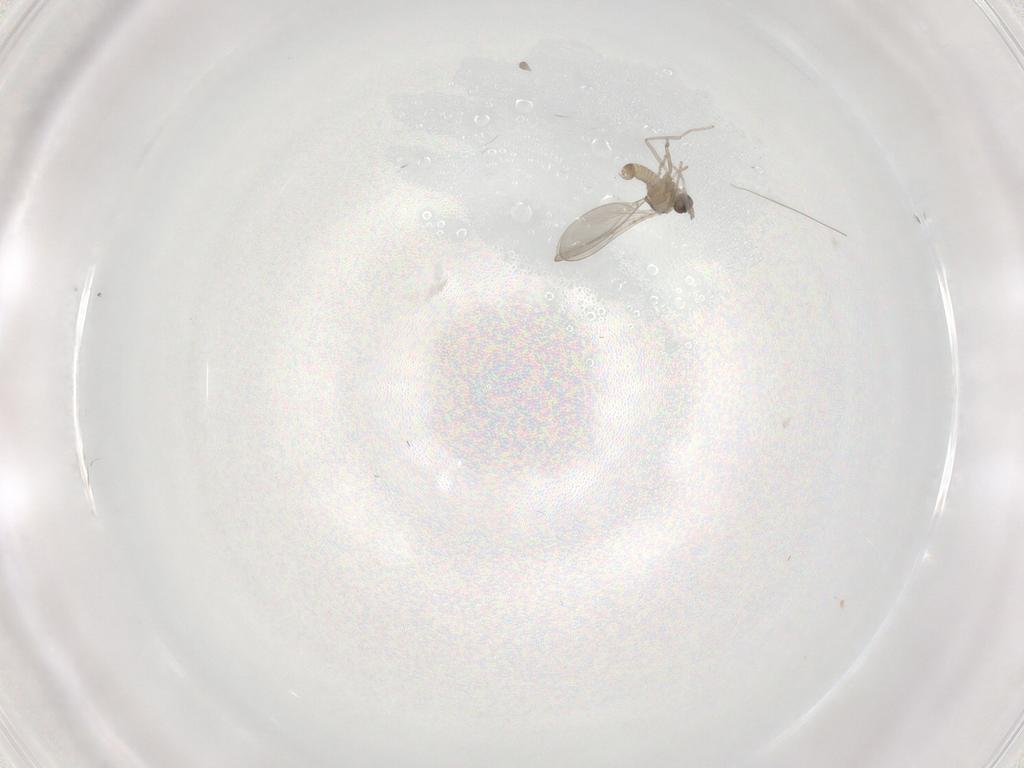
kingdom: Animalia
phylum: Arthropoda
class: Insecta
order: Diptera
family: Cecidomyiidae
